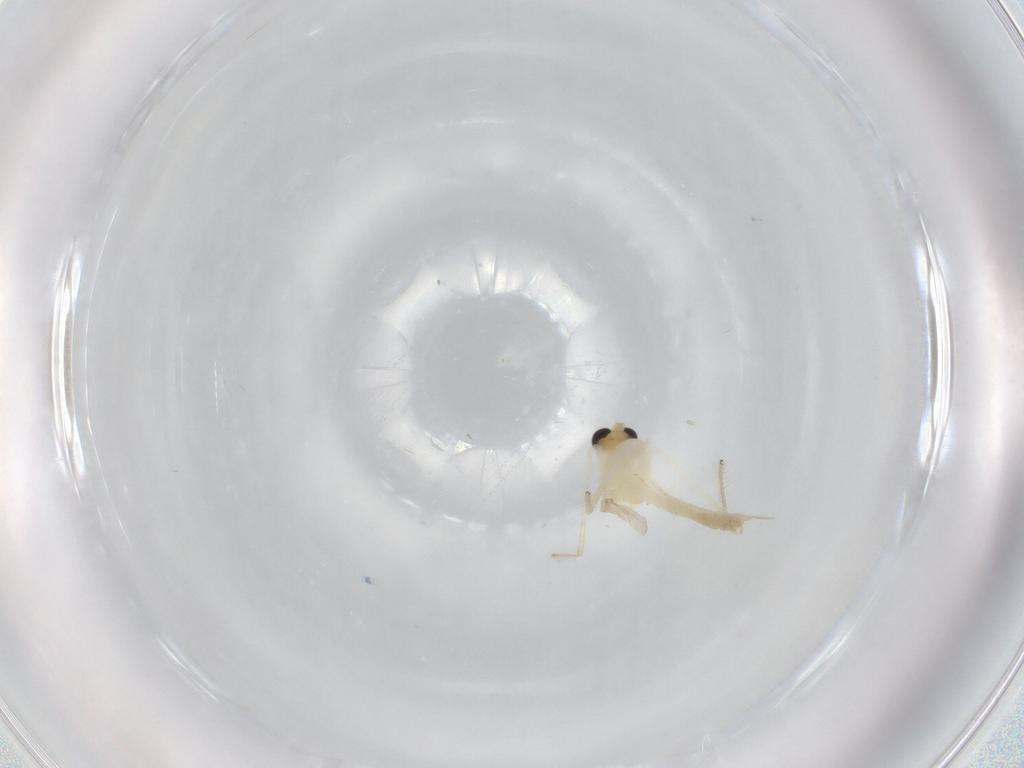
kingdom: Animalia
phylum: Arthropoda
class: Insecta
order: Diptera
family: Chironomidae
